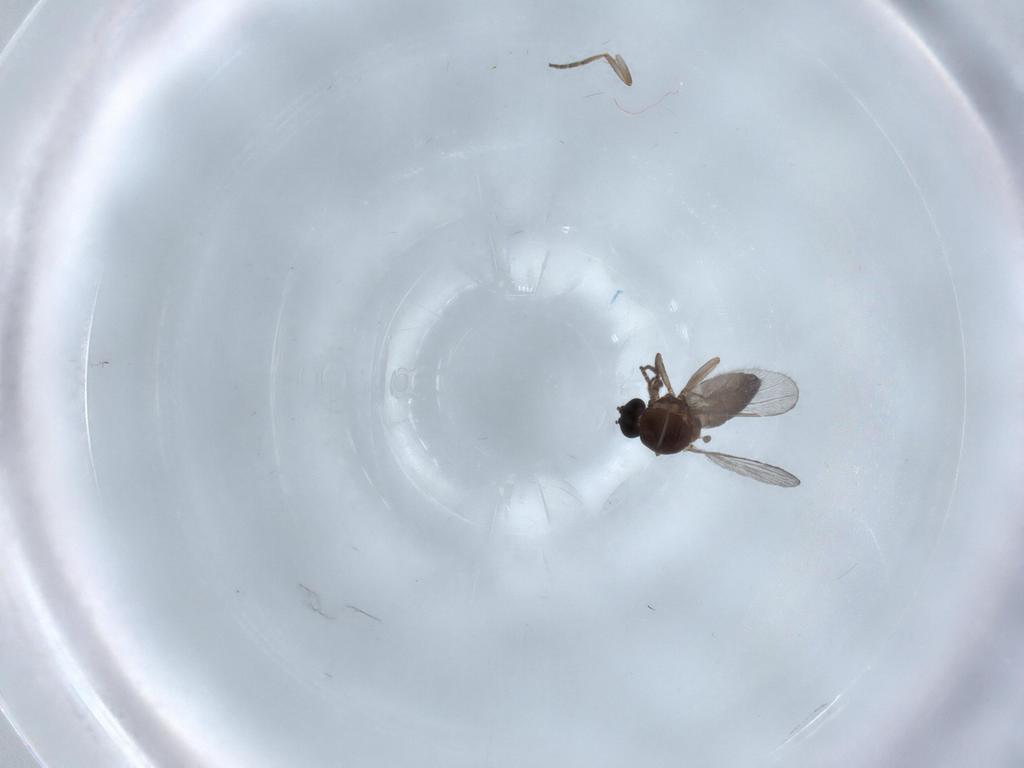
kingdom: Animalia
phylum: Arthropoda
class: Insecta
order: Diptera
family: Ceratopogonidae
